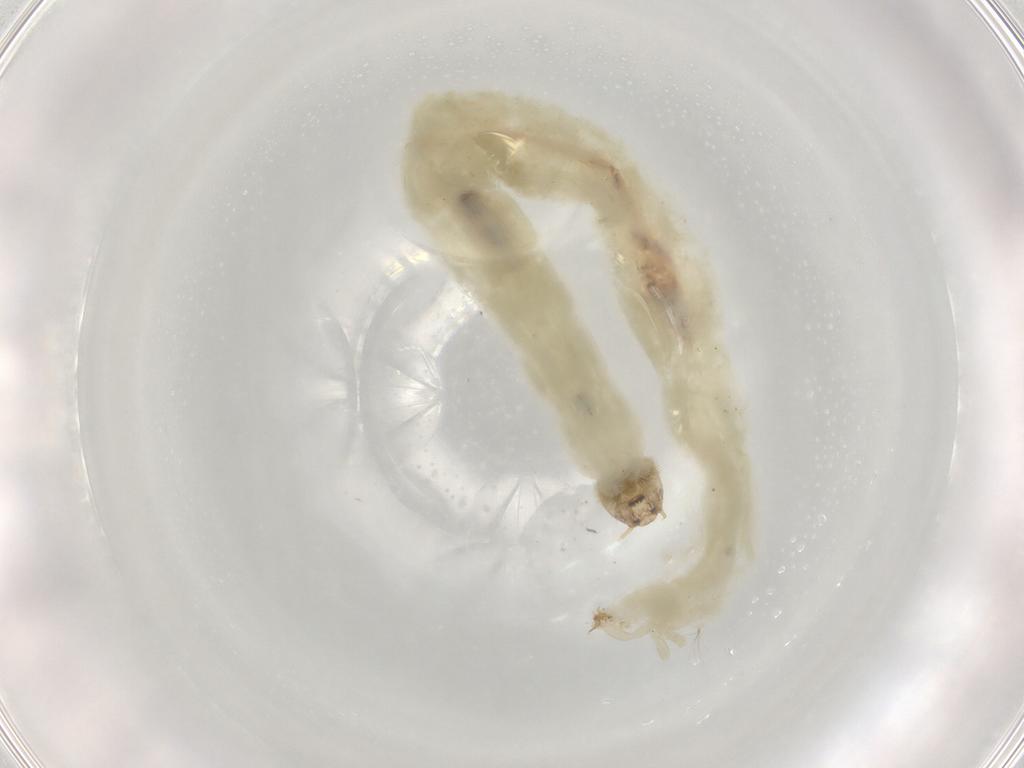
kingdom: Animalia
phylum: Arthropoda
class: Insecta
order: Diptera
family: Chironomidae
